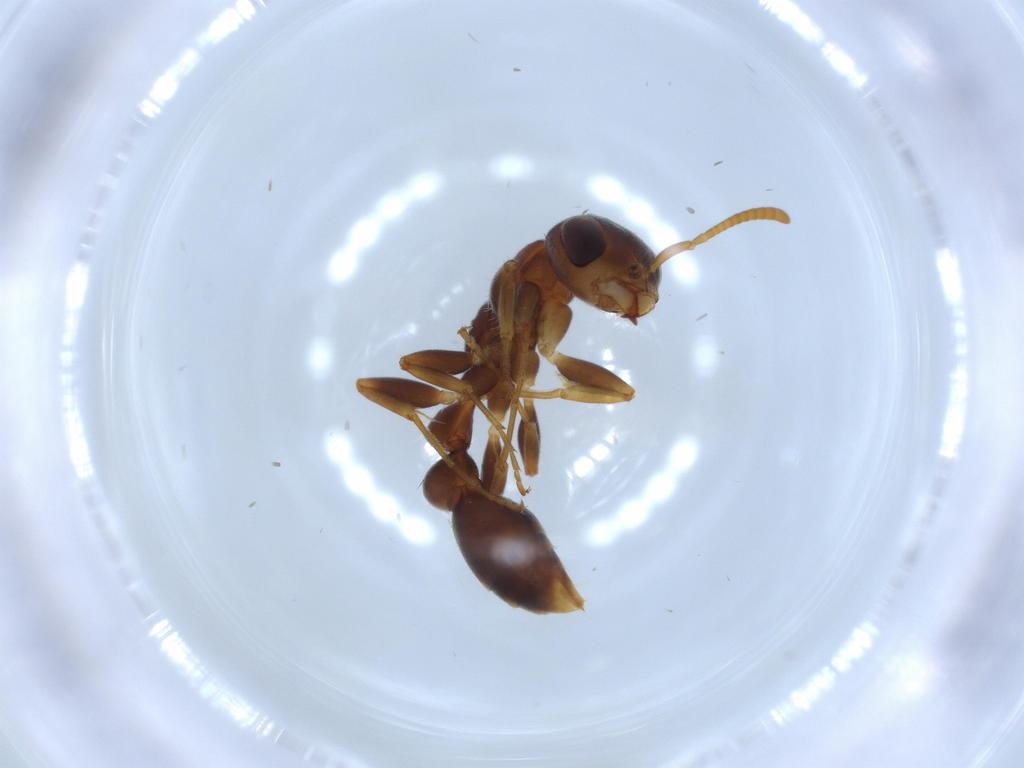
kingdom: Animalia
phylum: Arthropoda
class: Insecta
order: Hymenoptera
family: Formicidae
